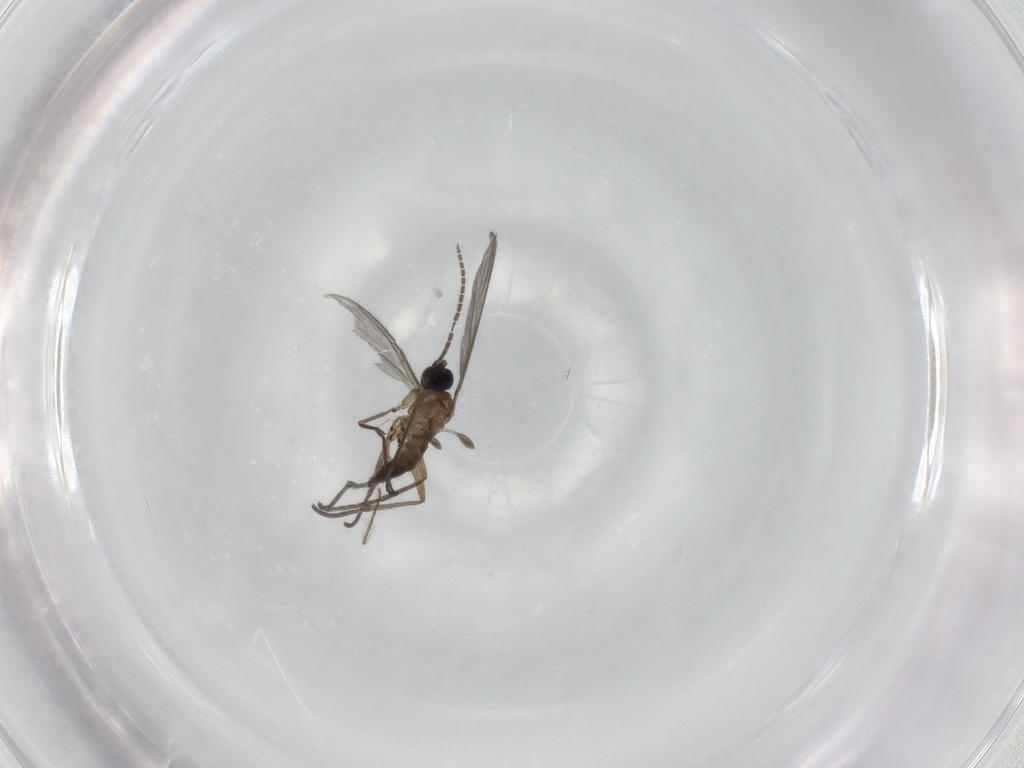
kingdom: Animalia
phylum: Arthropoda
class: Insecta
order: Diptera
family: Sciaridae
